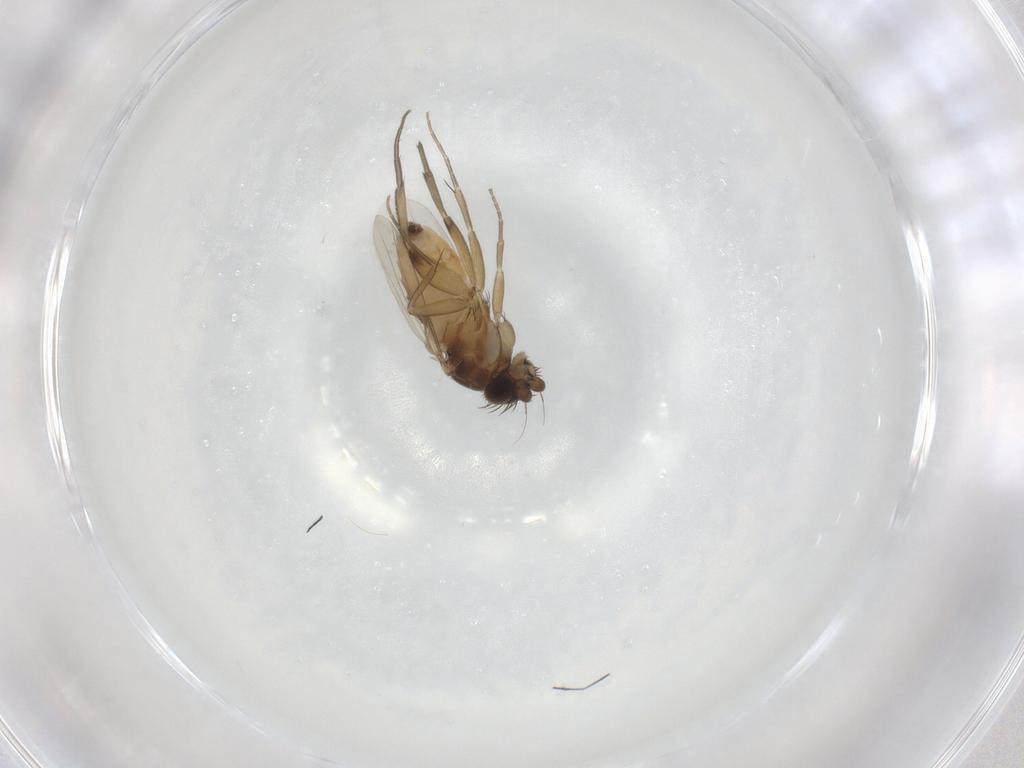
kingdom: Animalia
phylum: Arthropoda
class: Insecta
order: Diptera
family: Phoridae
